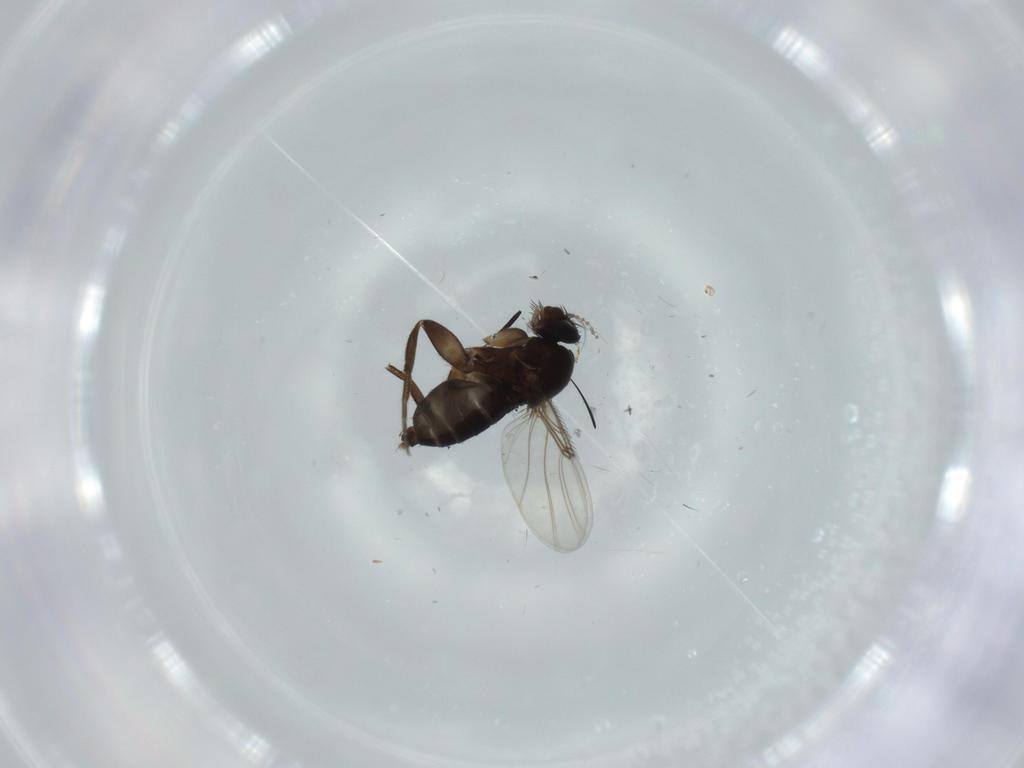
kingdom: Animalia
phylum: Arthropoda
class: Insecta
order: Diptera
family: Phoridae
